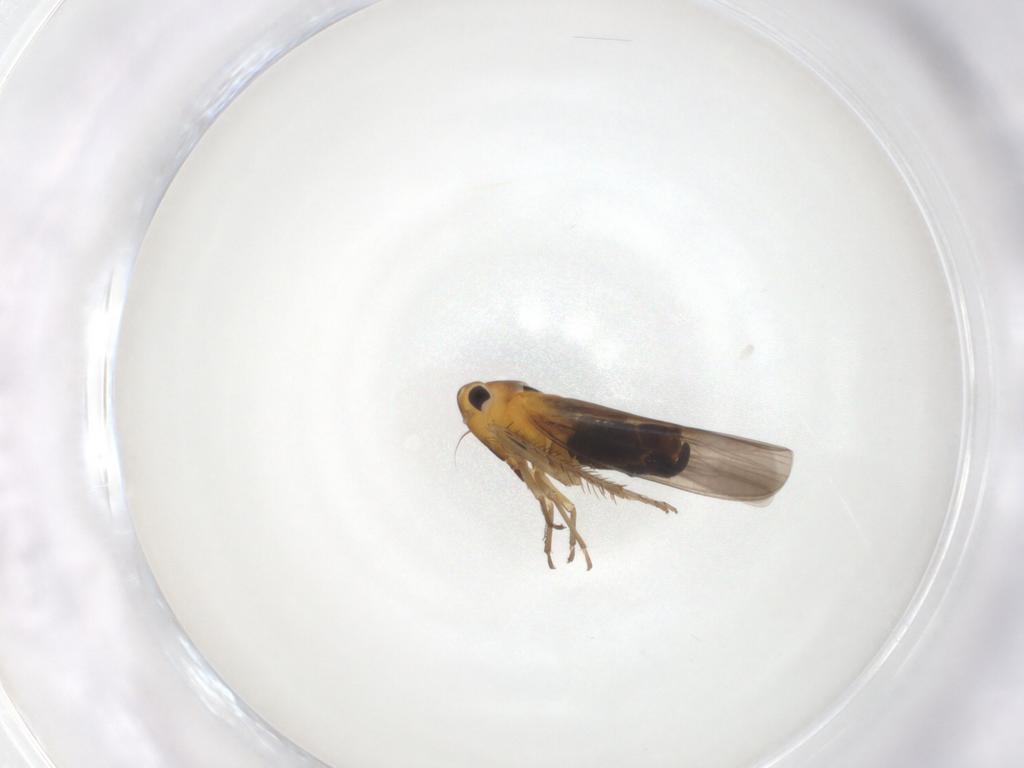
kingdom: Animalia
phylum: Arthropoda
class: Insecta
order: Hemiptera
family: Cicadellidae
